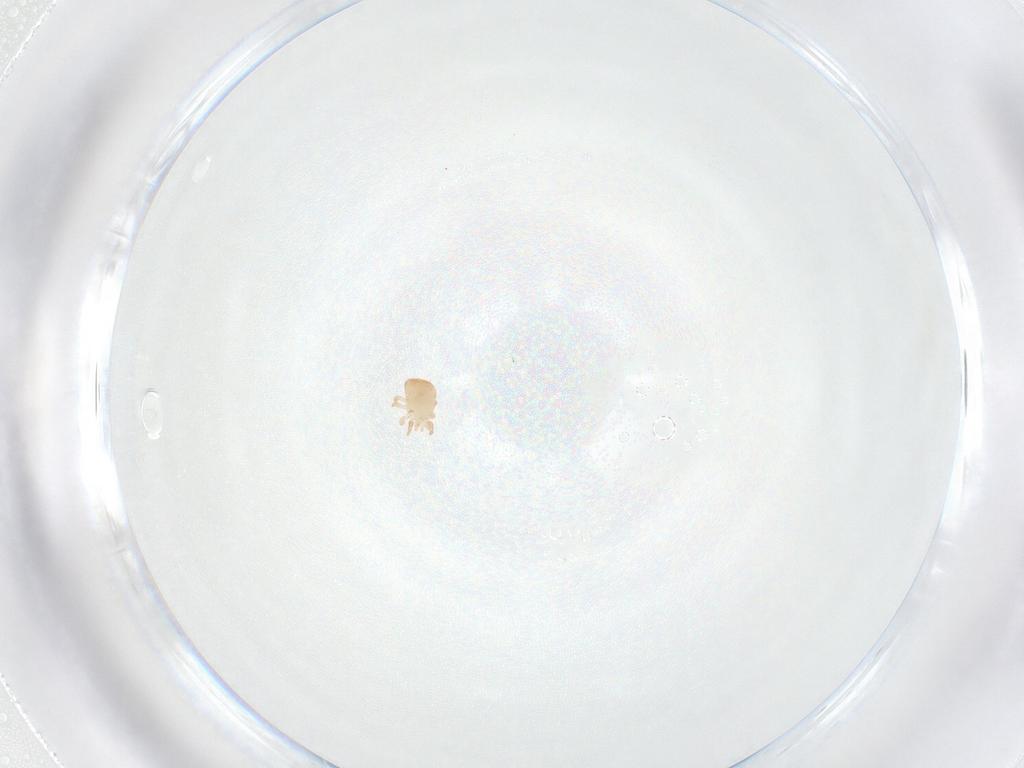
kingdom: Animalia
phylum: Arthropoda
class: Arachnida
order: Mesostigmata
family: Zerconidae
